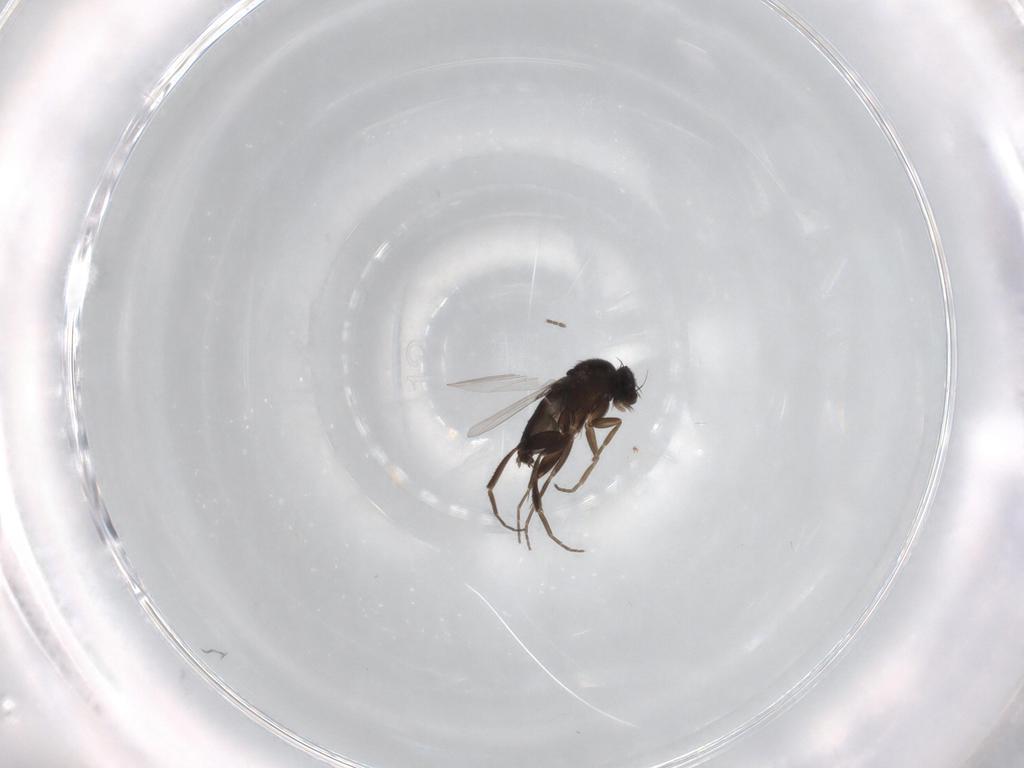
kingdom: Animalia
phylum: Arthropoda
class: Insecta
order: Diptera
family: Phoridae
